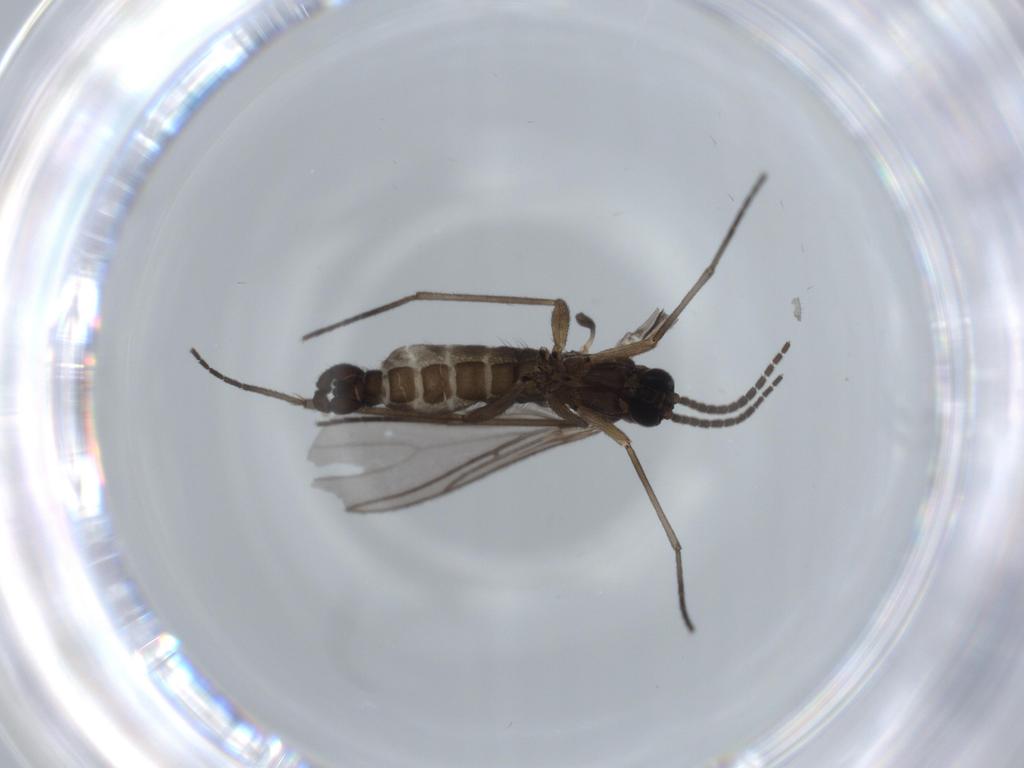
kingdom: Animalia
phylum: Arthropoda
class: Insecta
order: Diptera
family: Sciaridae
